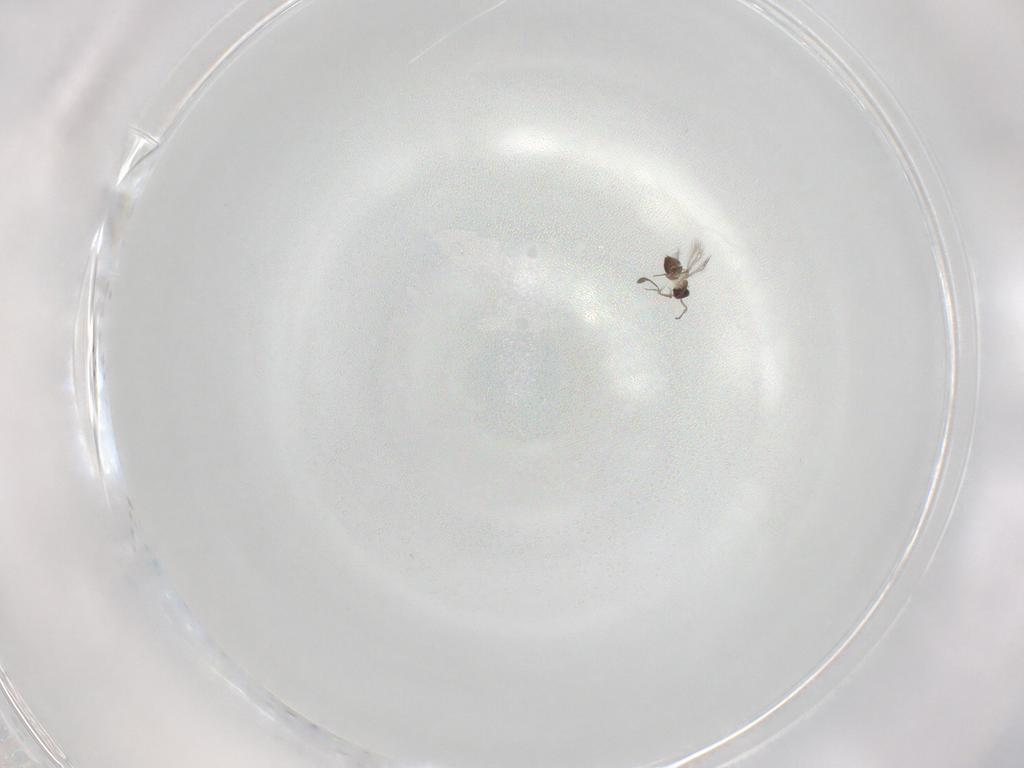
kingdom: Animalia
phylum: Arthropoda
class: Insecta
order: Hymenoptera
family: Mymaridae
